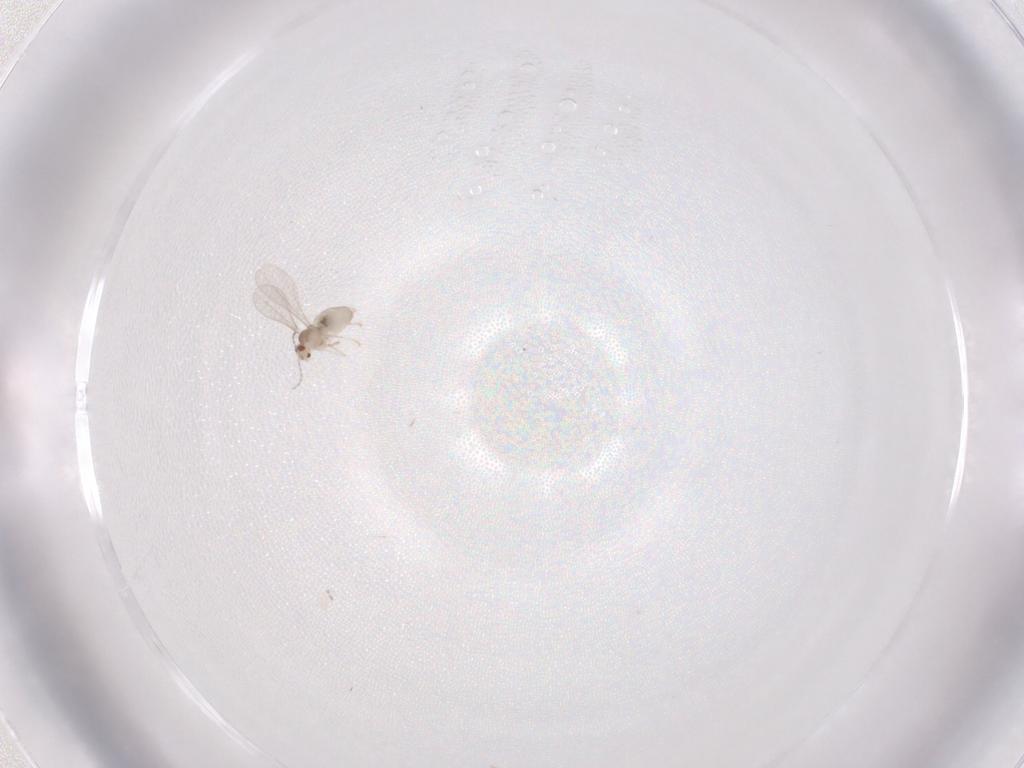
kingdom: Animalia
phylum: Arthropoda
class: Insecta
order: Diptera
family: Cecidomyiidae
